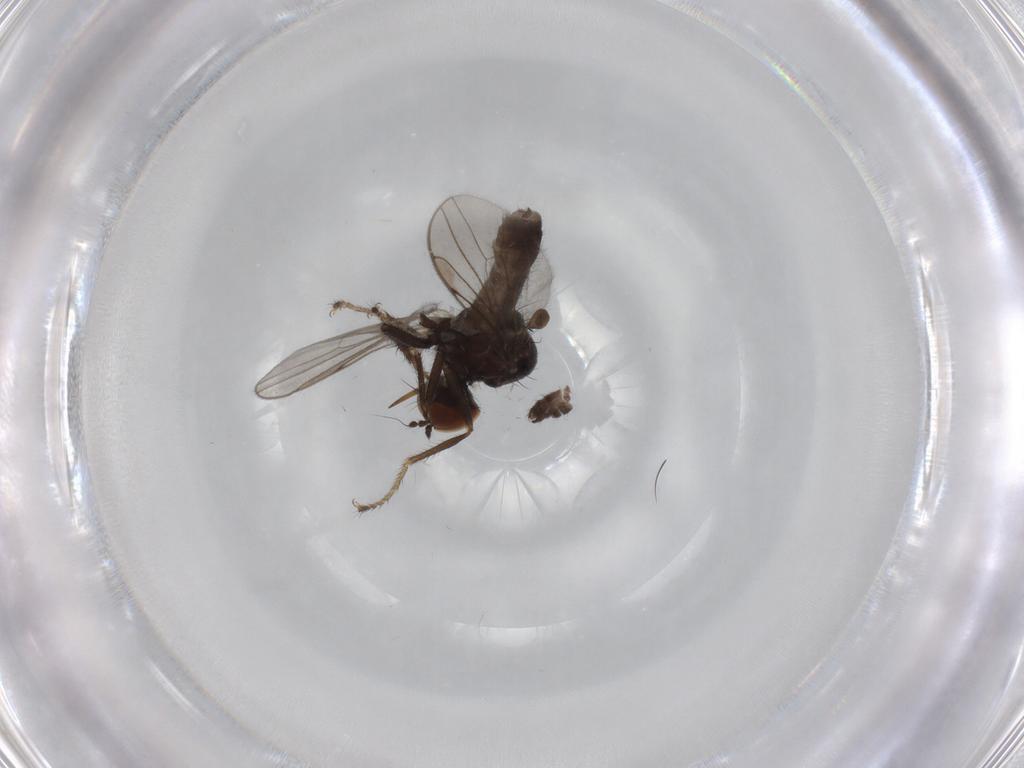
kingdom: Animalia
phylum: Arthropoda
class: Insecta
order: Diptera
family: Hybotidae
